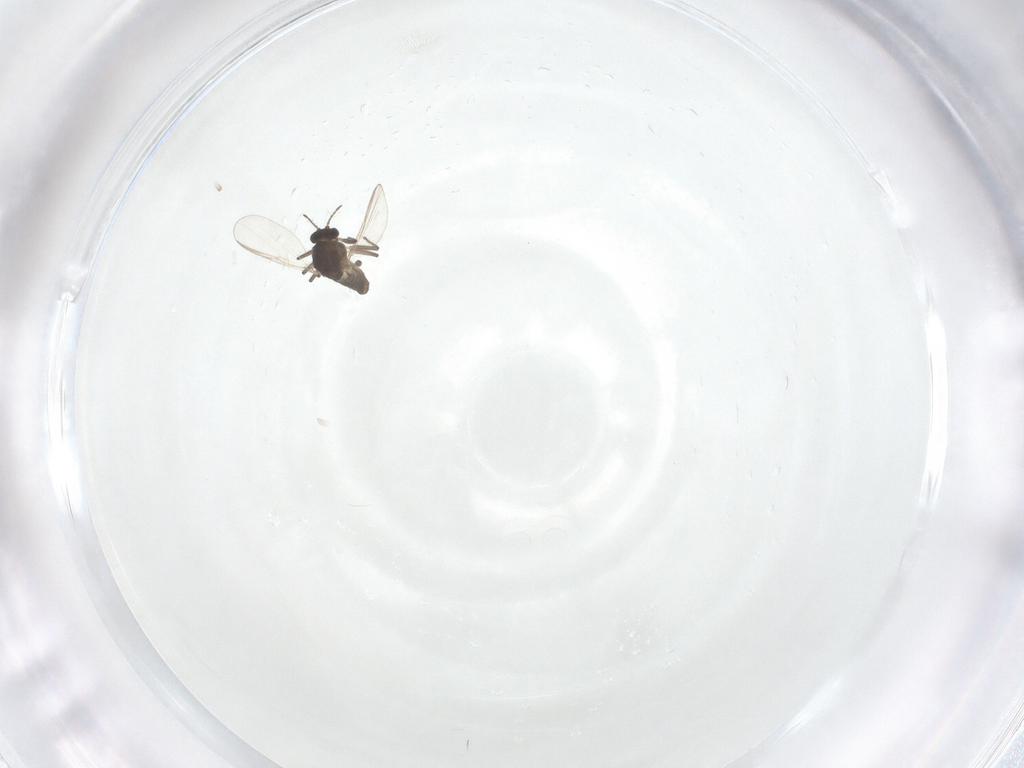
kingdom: Animalia
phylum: Arthropoda
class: Insecta
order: Diptera
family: Chironomidae
